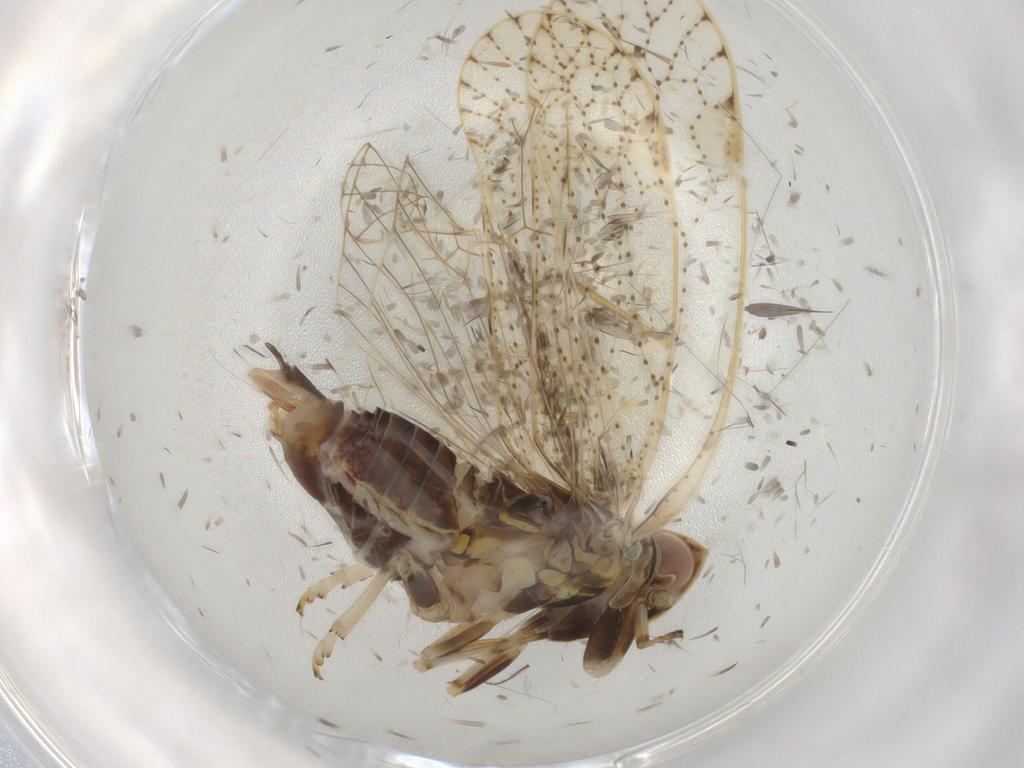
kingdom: Animalia
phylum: Arthropoda
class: Insecta
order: Hemiptera
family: Cixiidae
